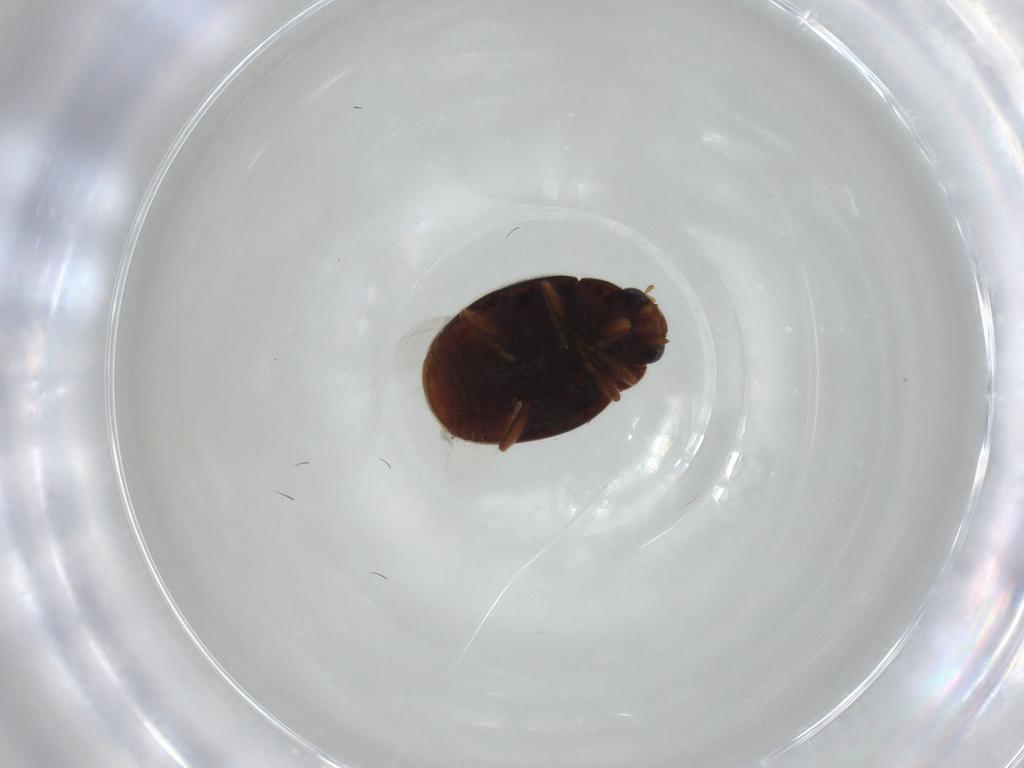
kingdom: Animalia
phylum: Arthropoda
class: Insecta
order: Coleoptera
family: Coccinellidae
